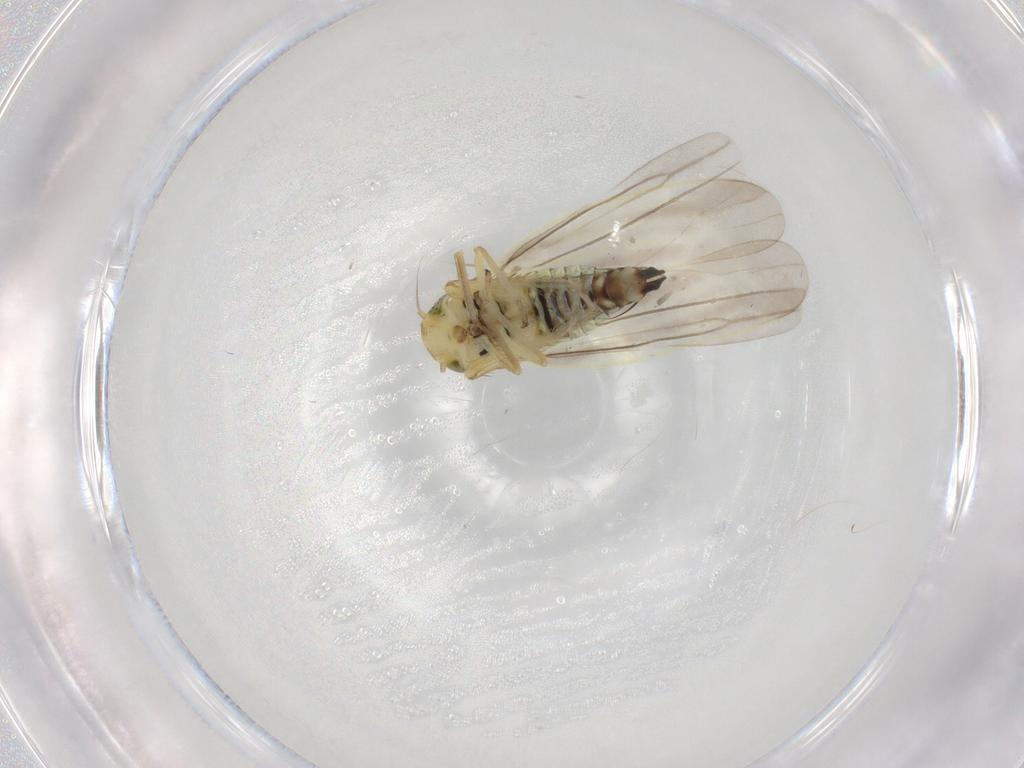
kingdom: Animalia
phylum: Arthropoda
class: Insecta
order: Hemiptera
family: Cicadellidae
